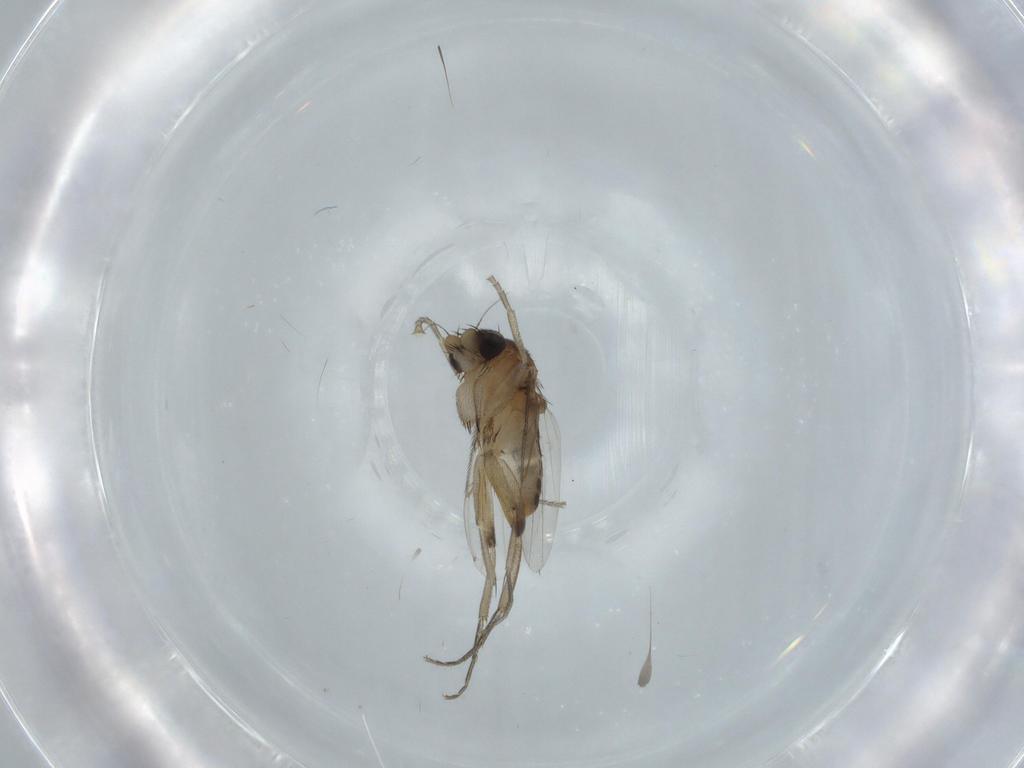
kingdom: Animalia
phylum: Arthropoda
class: Insecta
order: Diptera
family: Phoridae
